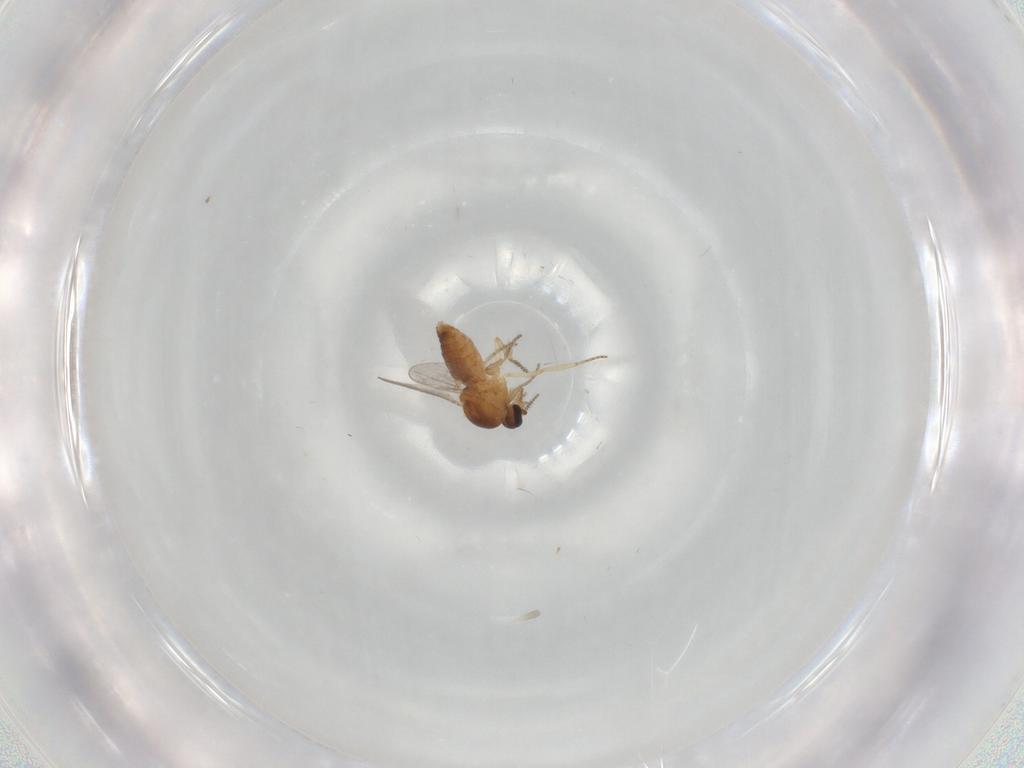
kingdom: Animalia
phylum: Arthropoda
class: Insecta
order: Diptera
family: Ceratopogonidae
